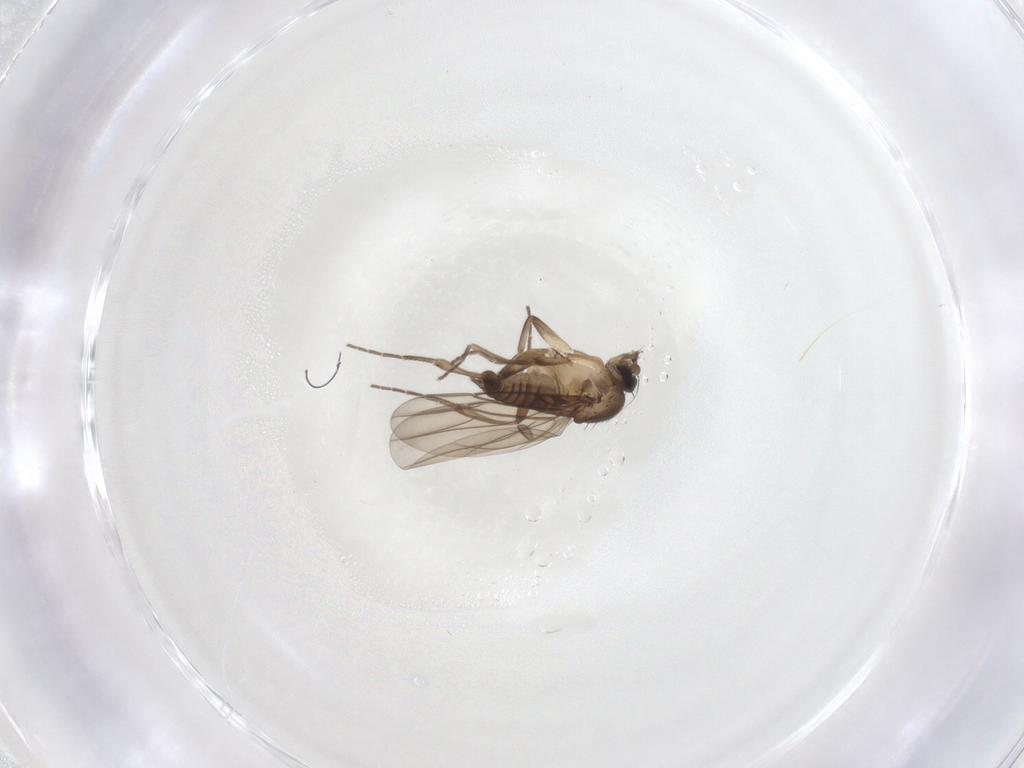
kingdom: Animalia
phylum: Arthropoda
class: Insecta
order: Diptera
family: Phoridae
